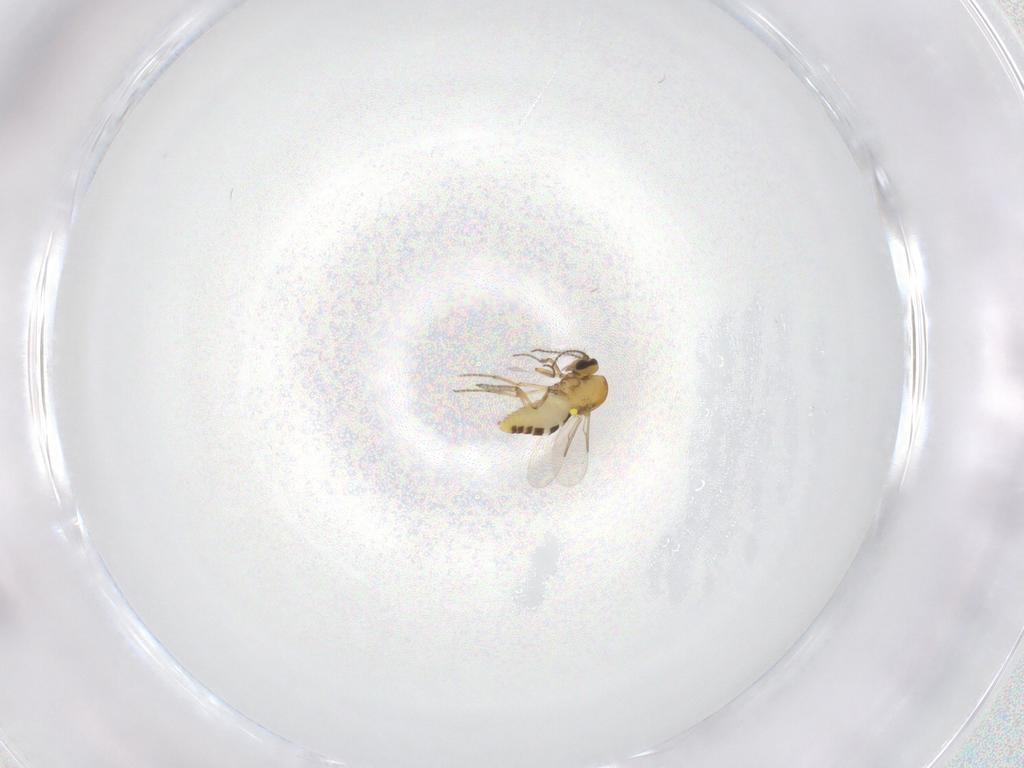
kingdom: Animalia
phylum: Arthropoda
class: Insecta
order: Diptera
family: Ceratopogonidae
